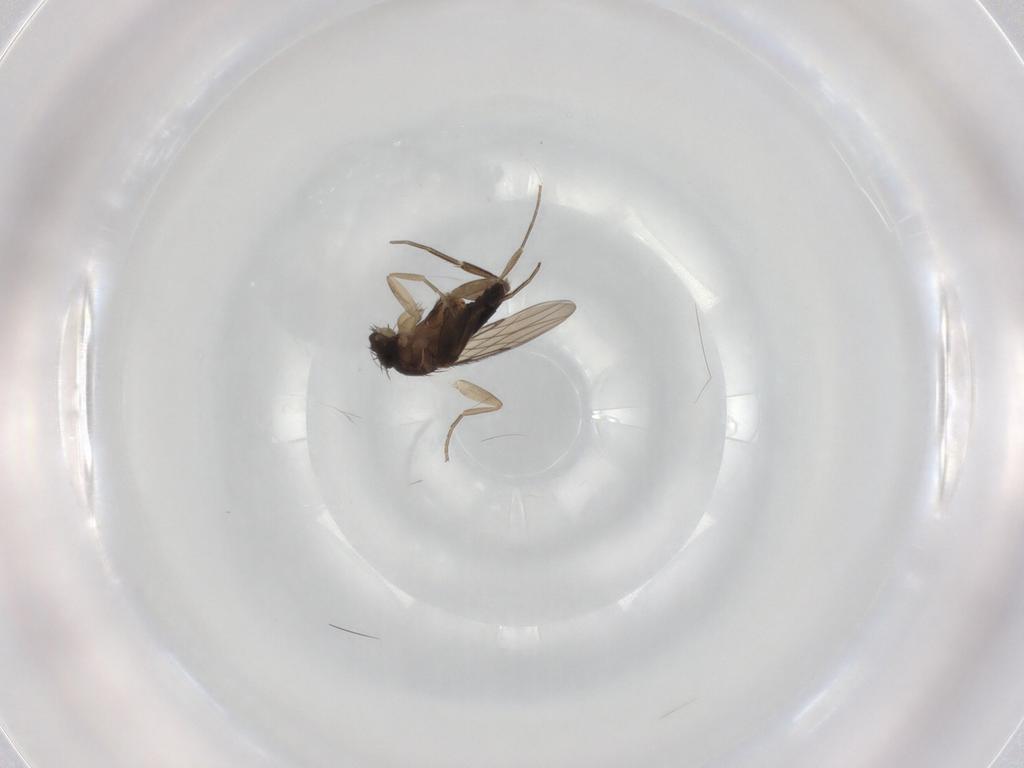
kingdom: Animalia
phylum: Arthropoda
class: Insecta
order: Diptera
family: Phoridae
